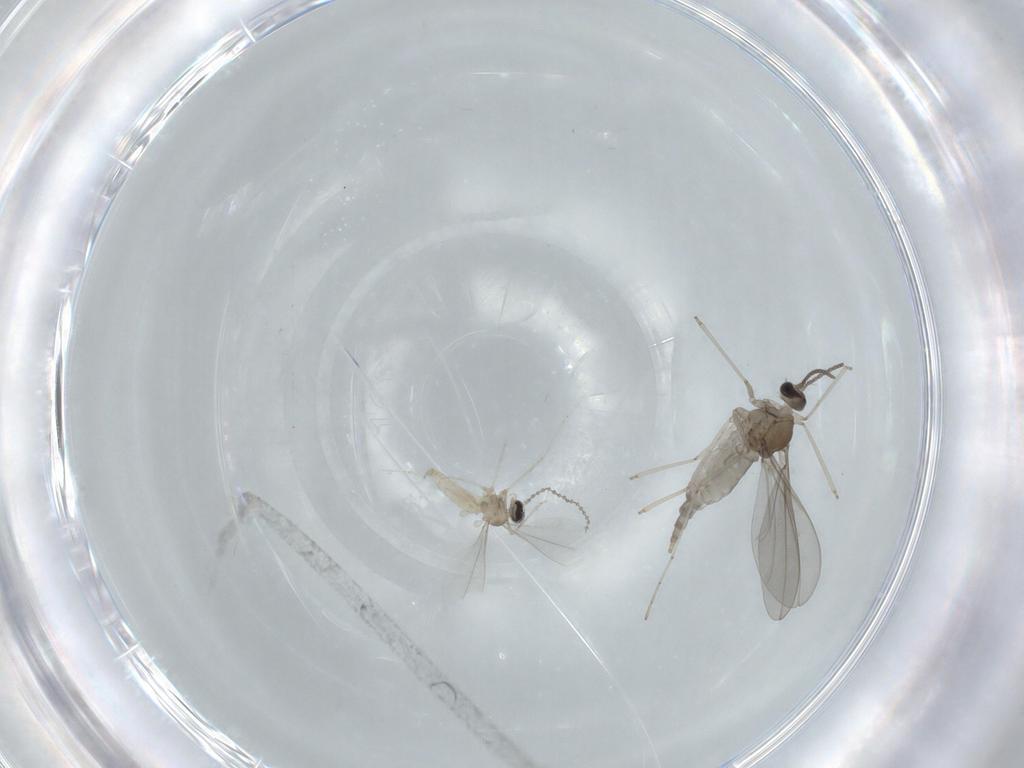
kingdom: Animalia
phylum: Arthropoda
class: Insecta
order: Diptera
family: Cecidomyiidae
